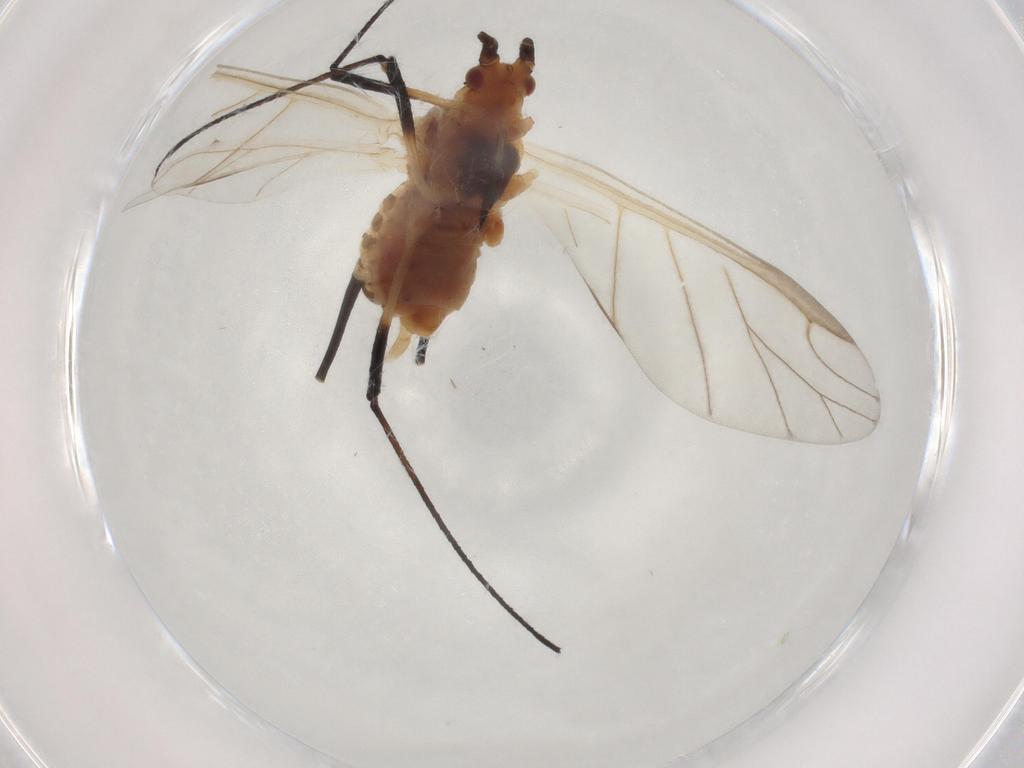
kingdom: Animalia
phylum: Arthropoda
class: Insecta
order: Hemiptera
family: Aphididae
